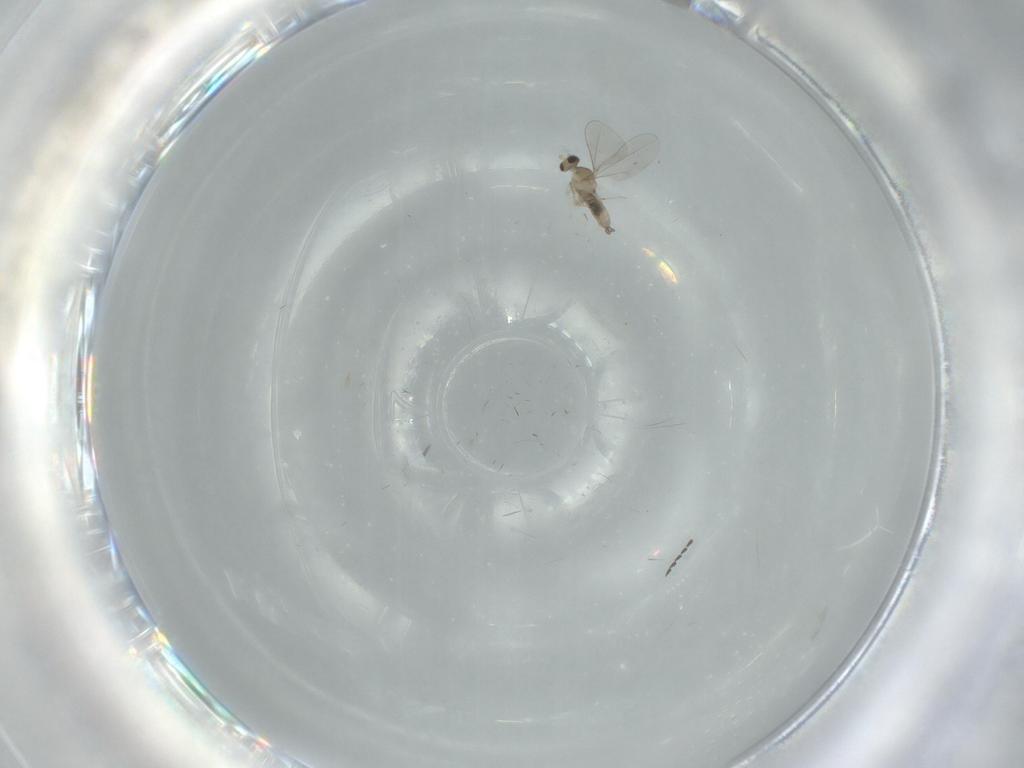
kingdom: Animalia
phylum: Arthropoda
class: Insecta
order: Diptera
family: Cecidomyiidae
